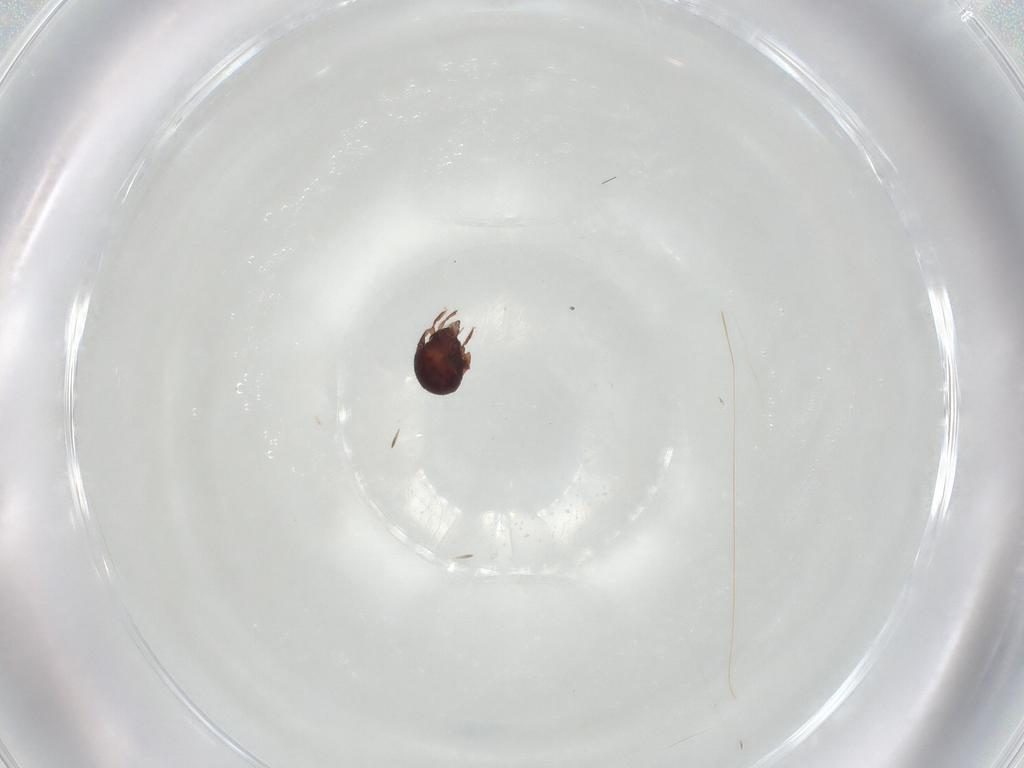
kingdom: Animalia
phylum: Arthropoda
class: Arachnida
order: Sarcoptiformes
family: Humerobatidae
